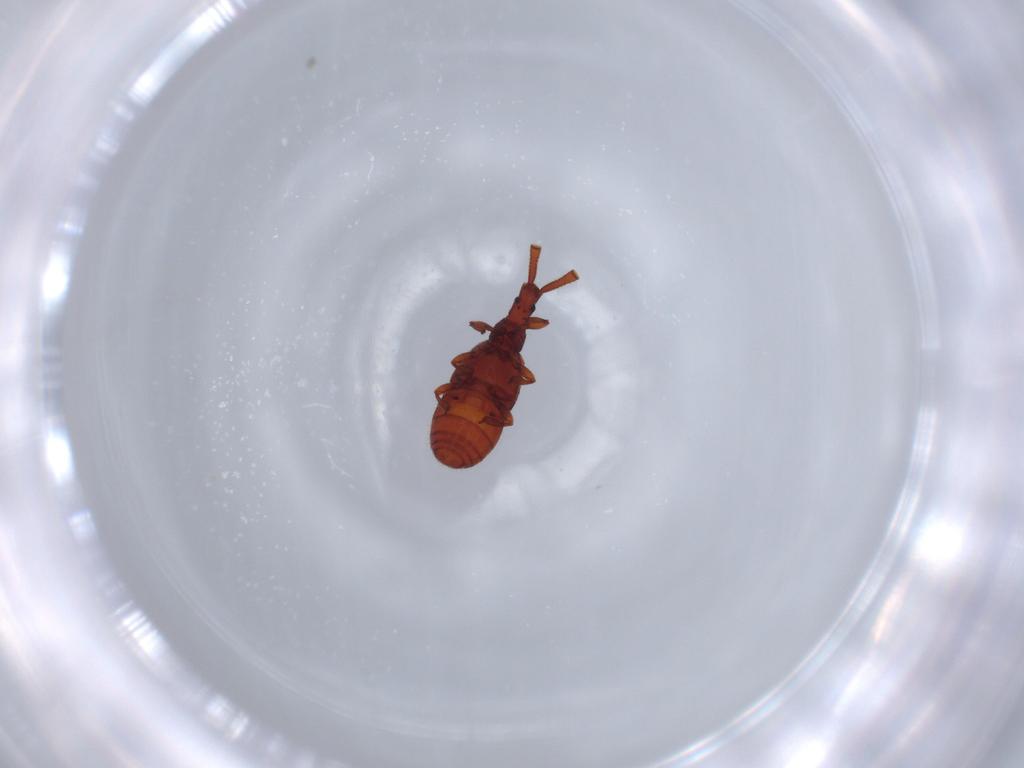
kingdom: Animalia
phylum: Arthropoda
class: Insecta
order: Coleoptera
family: Staphylinidae
